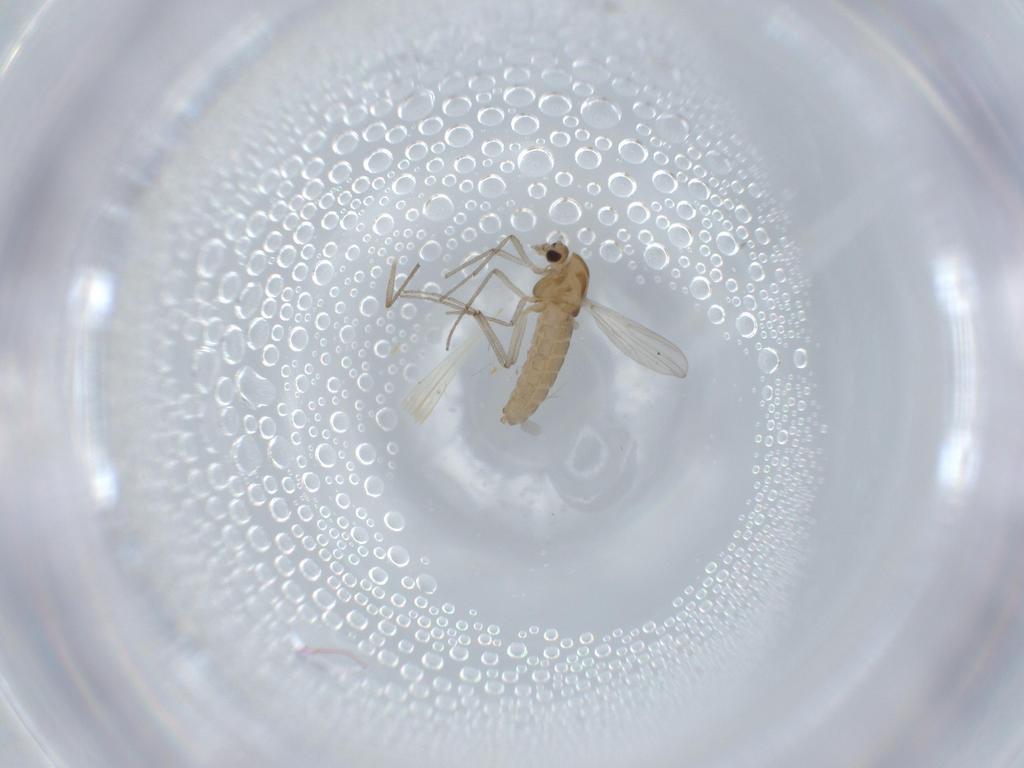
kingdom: Animalia
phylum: Arthropoda
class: Insecta
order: Diptera
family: Chironomidae
